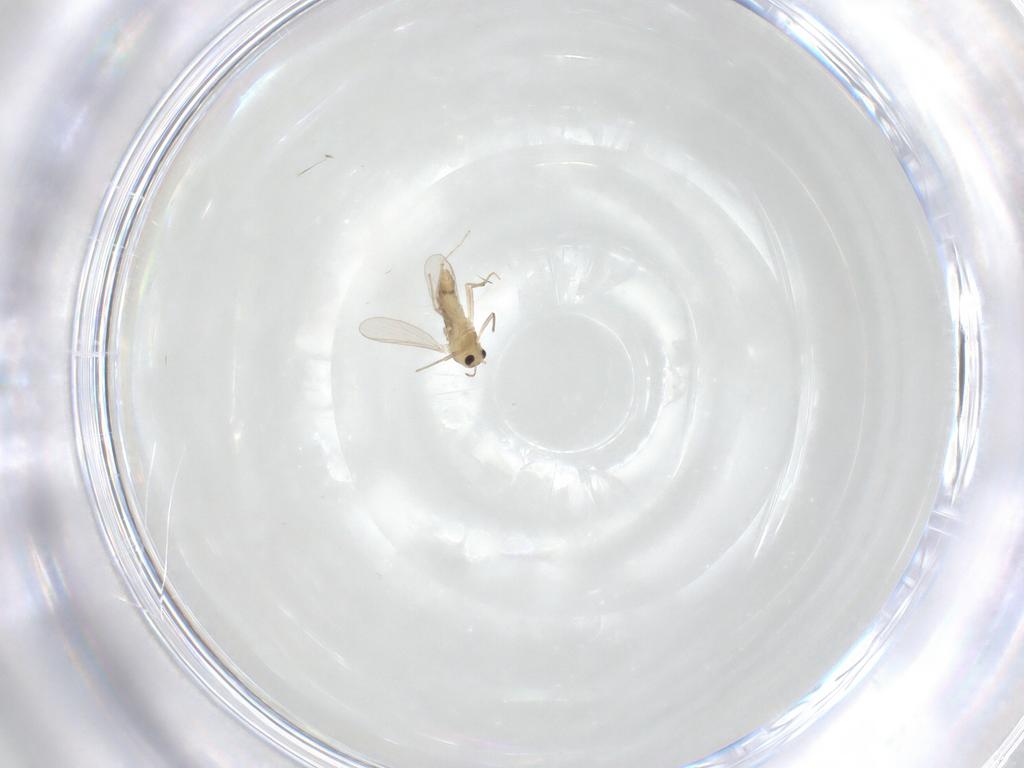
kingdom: Animalia
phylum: Arthropoda
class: Insecta
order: Diptera
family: Chironomidae
